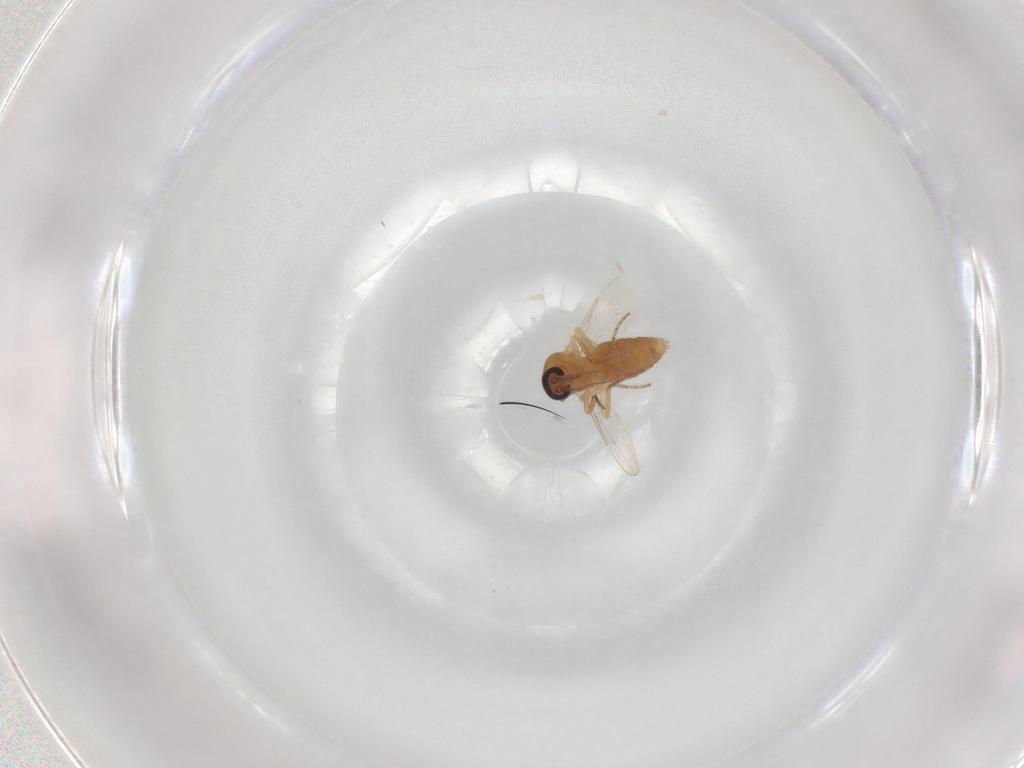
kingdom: Animalia
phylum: Arthropoda
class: Insecta
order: Diptera
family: Ceratopogonidae
